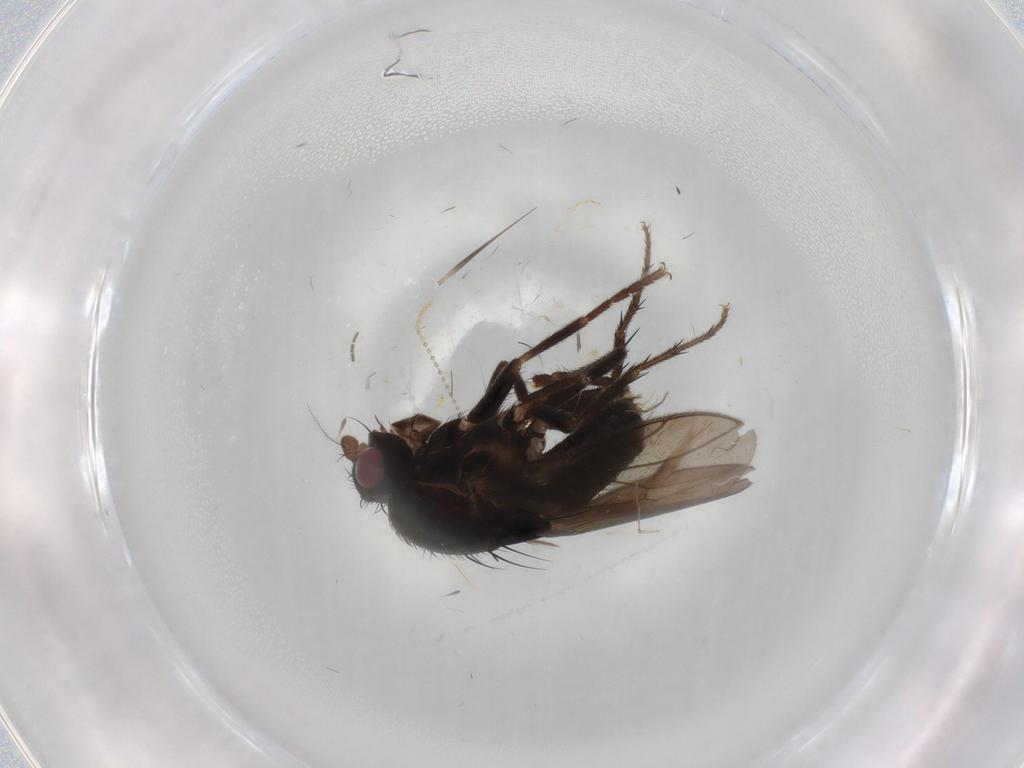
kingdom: Animalia
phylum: Arthropoda
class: Insecta
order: Diptera
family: Sphaeroceridae
